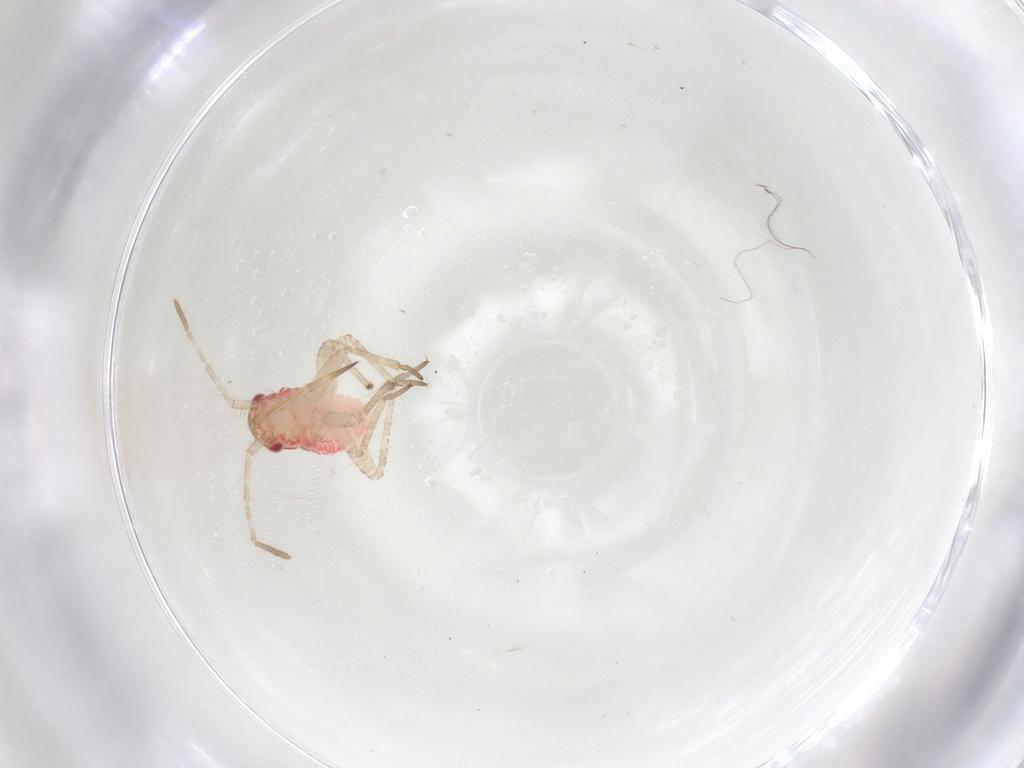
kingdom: Animalia
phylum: Arthropoda
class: Insecta
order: Hemiptera
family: Miridae
